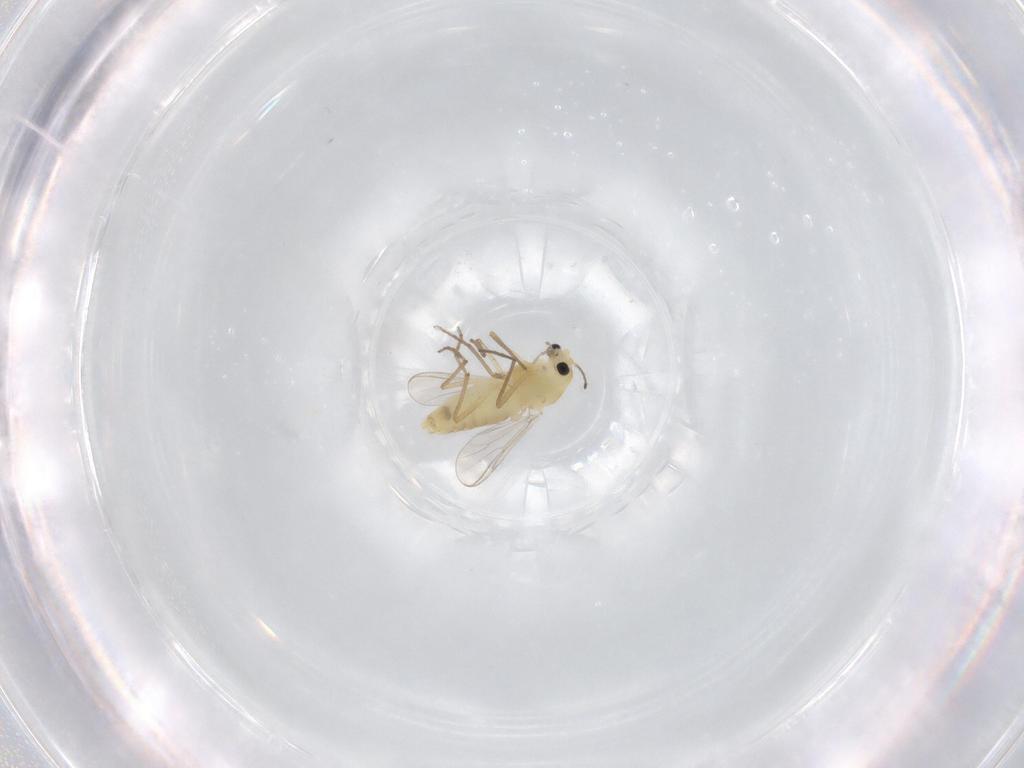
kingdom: Animalia
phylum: Arthropoda
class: Insecta
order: Diptera
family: Chironomidae
